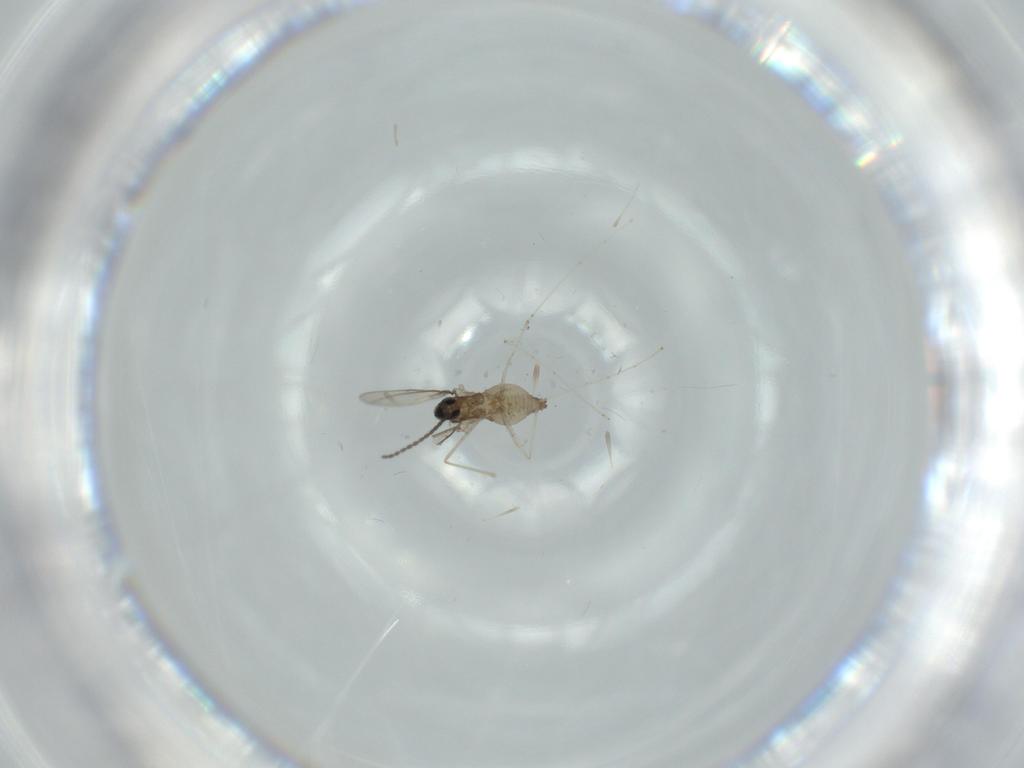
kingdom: Animalia
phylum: Arthropoda
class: Insecta
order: Diptera
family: Cecidomyiidae
